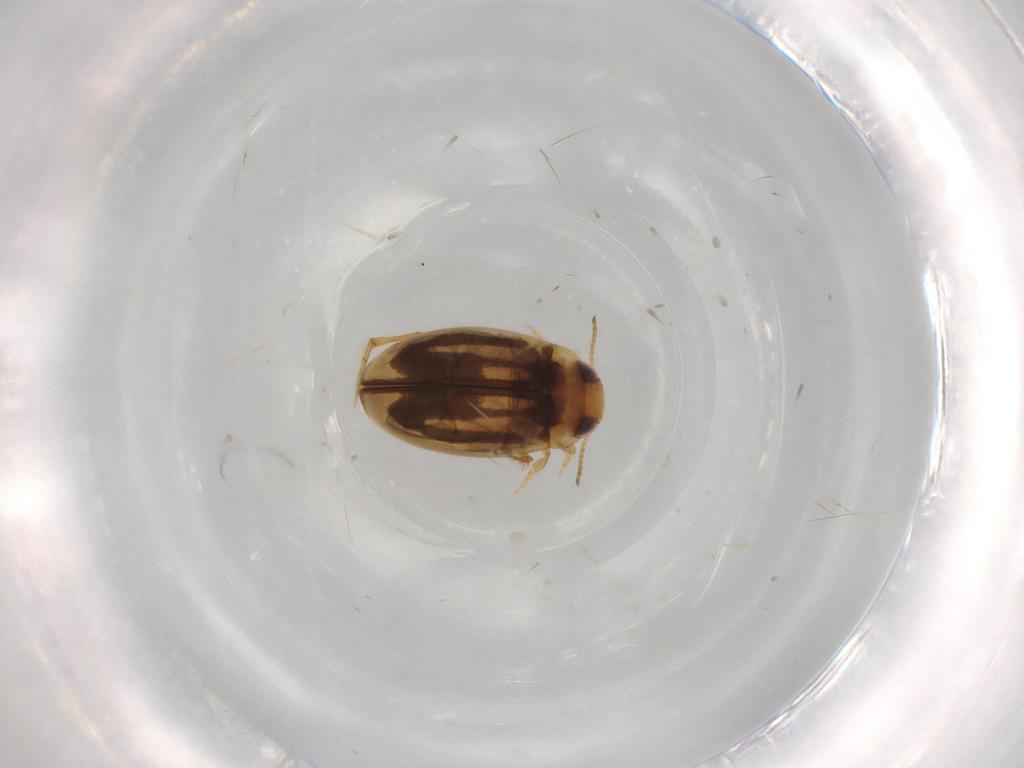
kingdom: Animalia
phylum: Arthropoda
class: Insecta
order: Coleoptera
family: Dytiscidae
